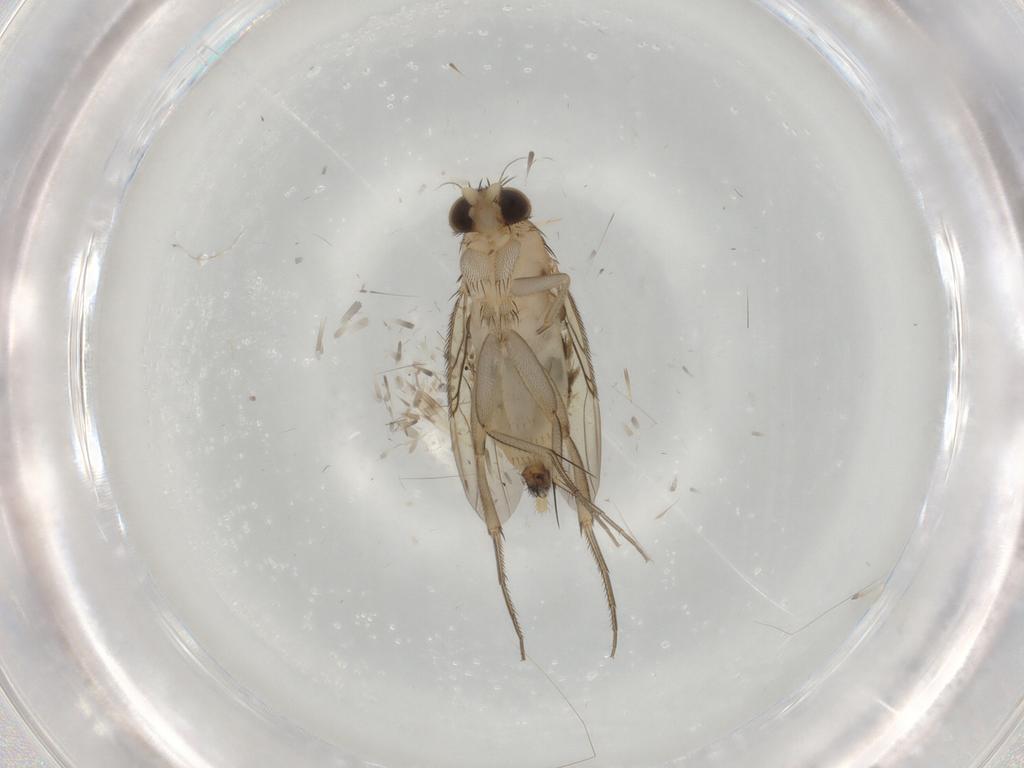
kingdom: Animalia
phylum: Arthropoda
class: Insecta
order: Diptera
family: Phoridae
